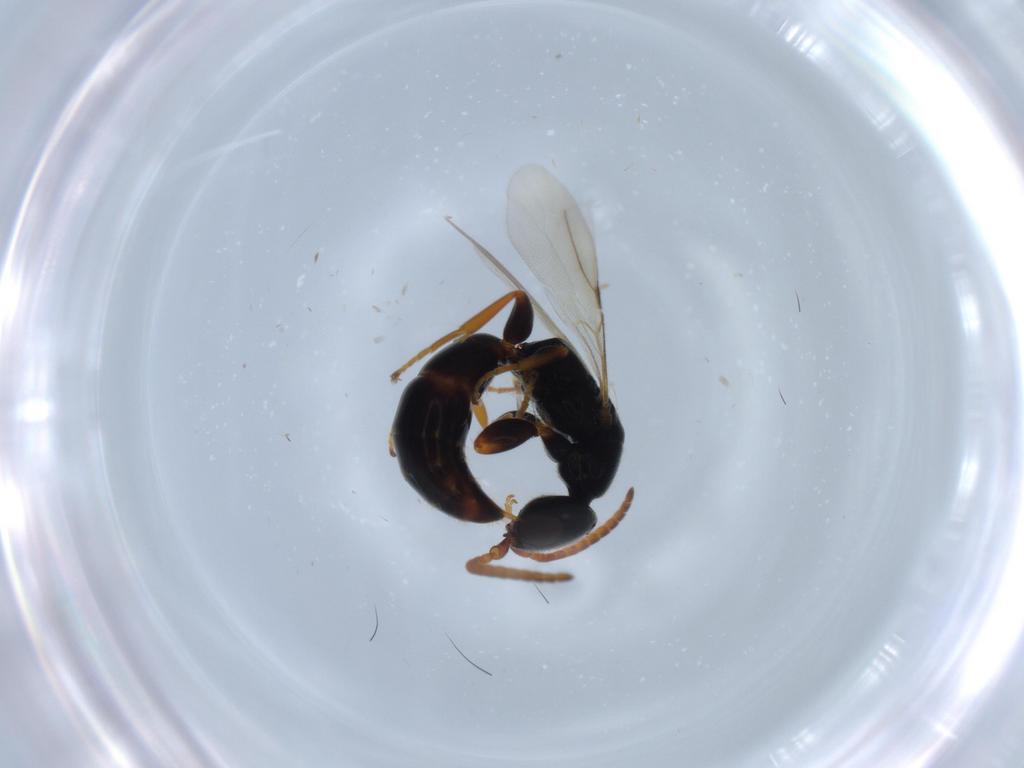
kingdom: Animalia
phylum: Arthropoda
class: Insecta
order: Hymenoptera
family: Bethylidae
